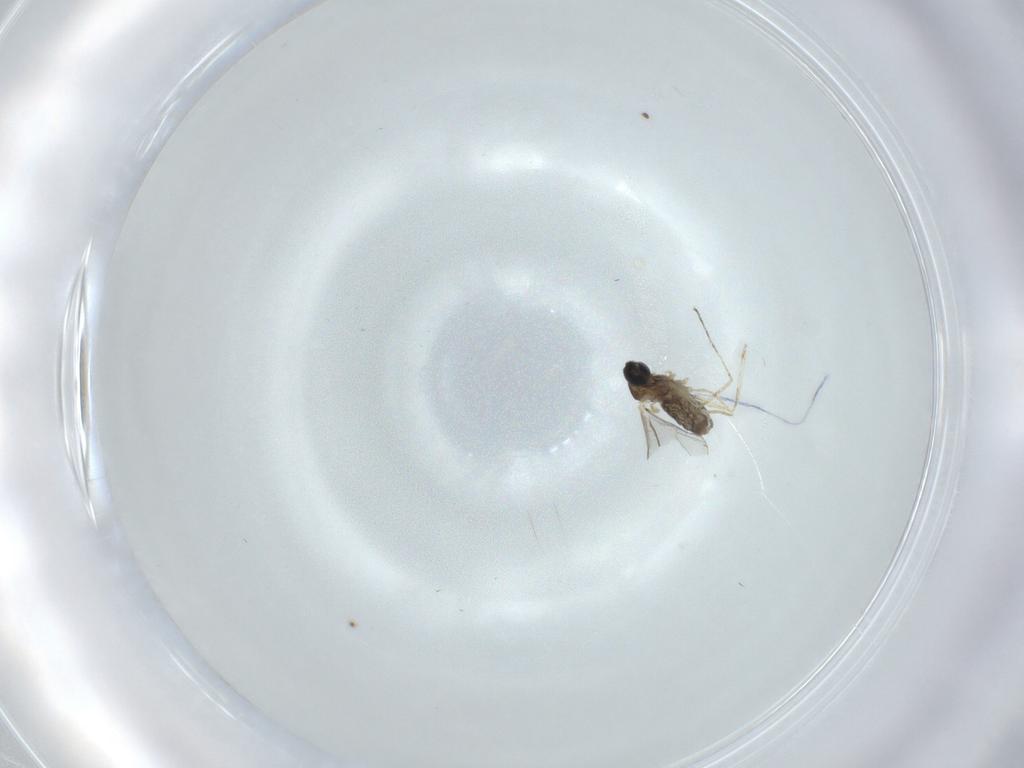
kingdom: Animalia
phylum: Arthropoda
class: Insecta
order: Diptera
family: Cecidomyiidae
